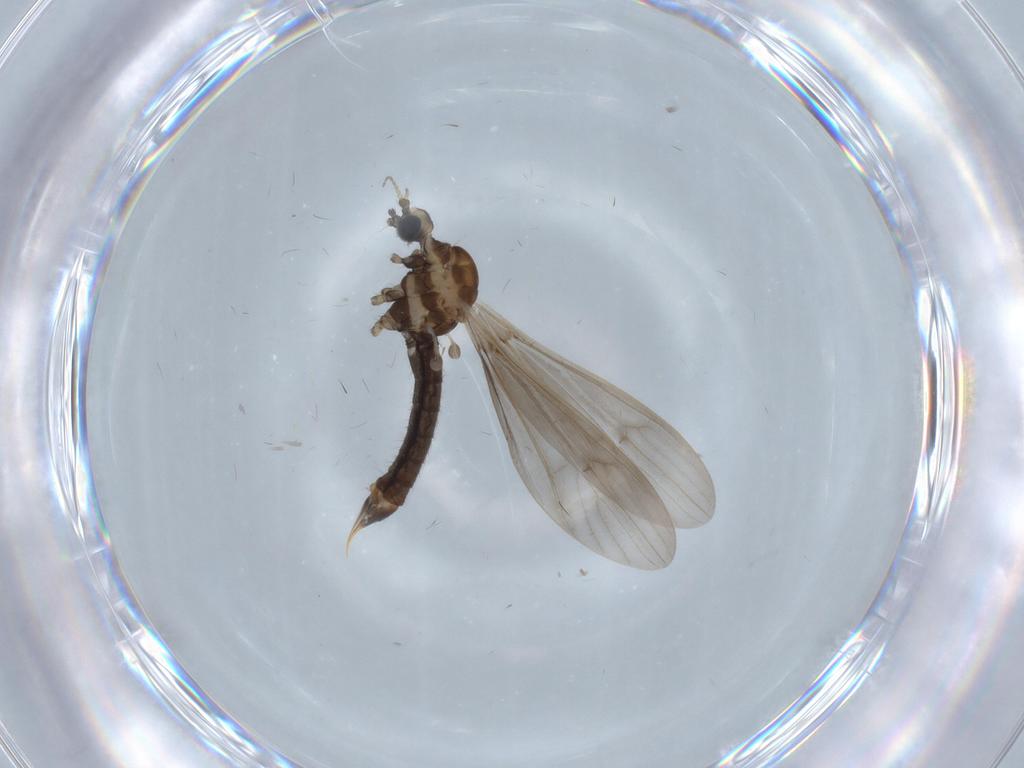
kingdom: Animalia
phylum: Arthropoda
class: Insecta
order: Diptera
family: Limoniidae
